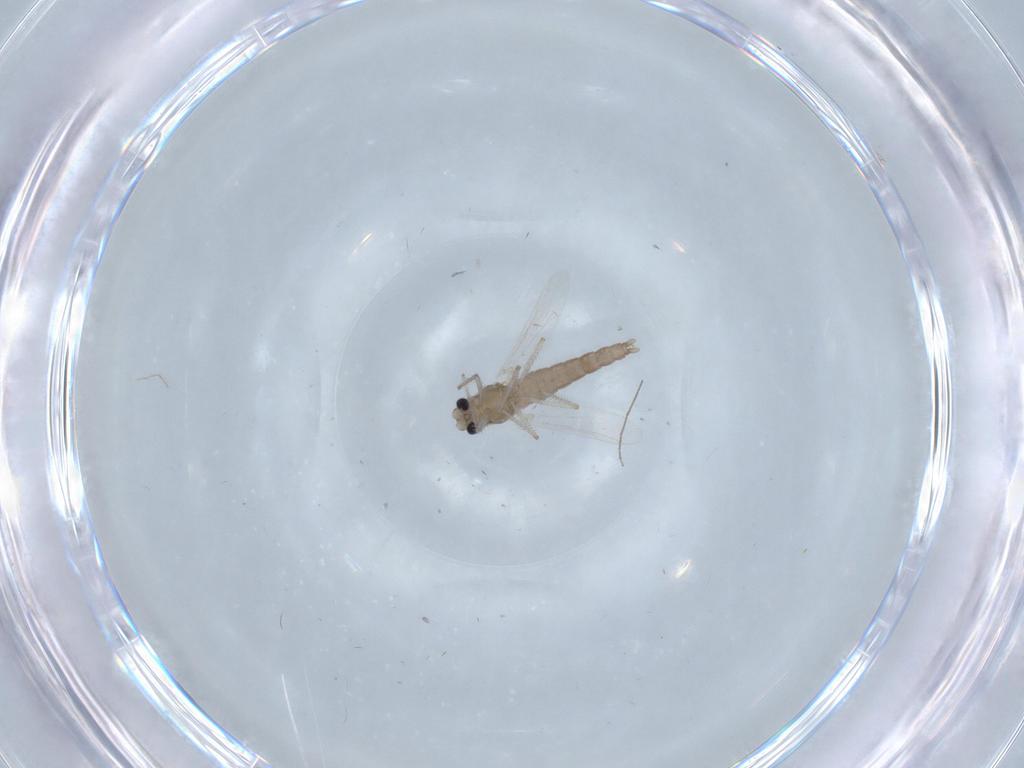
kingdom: Animalia
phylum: Arthropoda
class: Insecta
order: Diptera
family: Chironomidae
